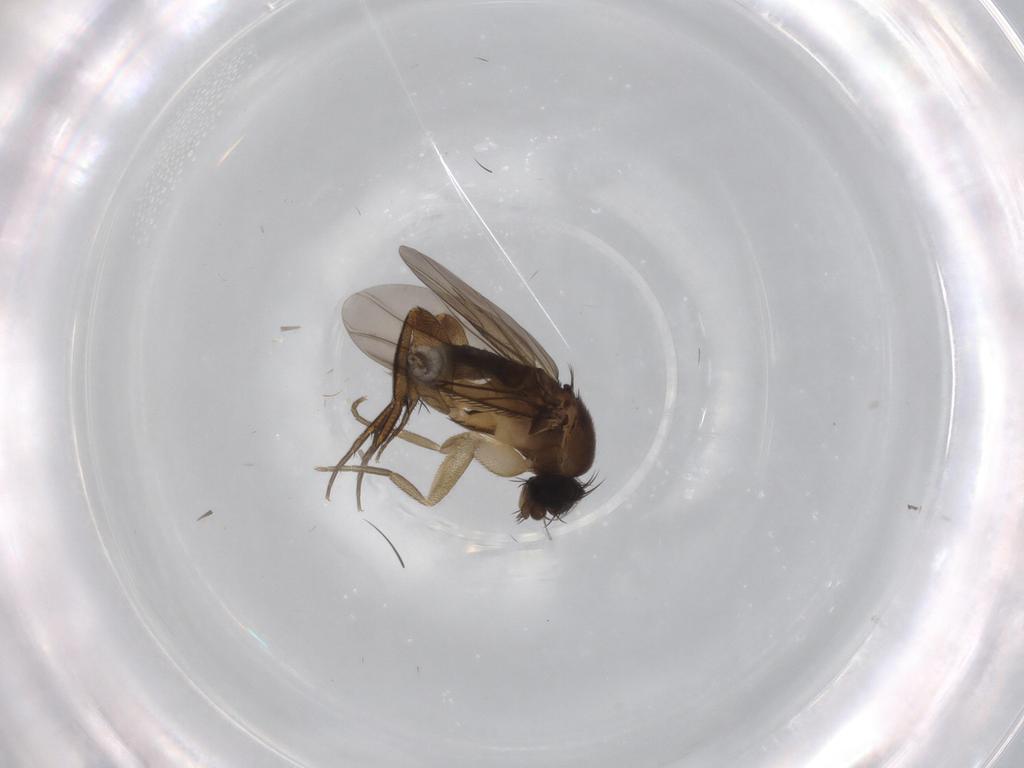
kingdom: Animalia
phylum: Arthropoda
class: Insecta
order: Diptera
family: Phoridae
